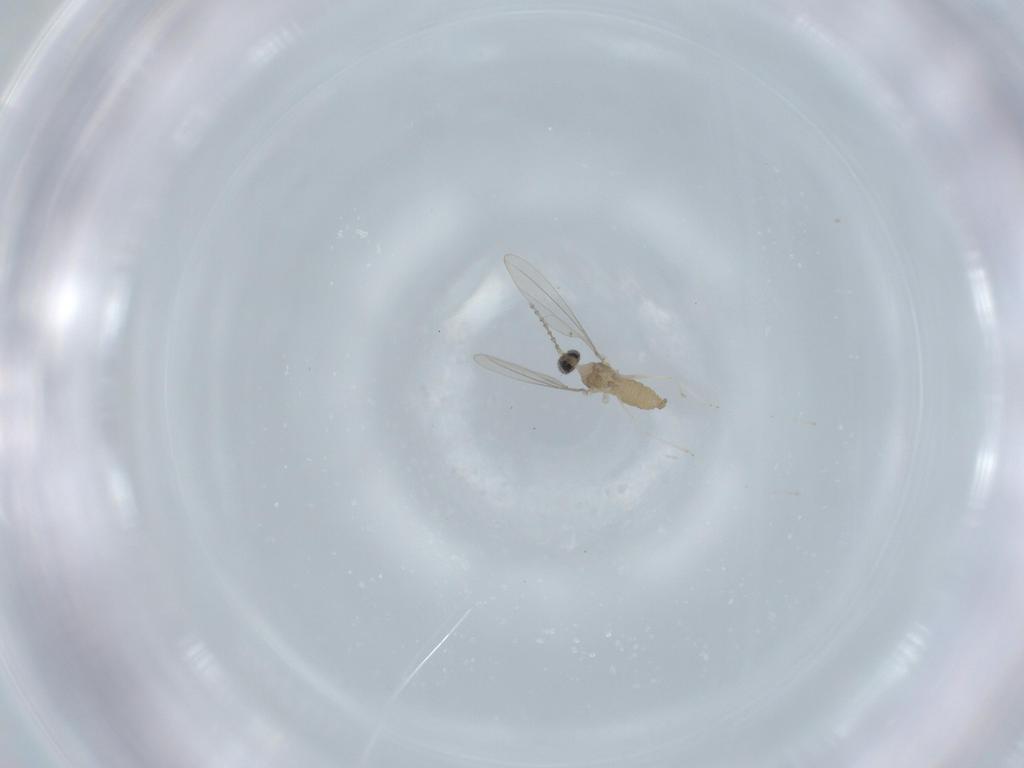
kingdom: Animalia
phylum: Arthropoda
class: Insecta
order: Diptera
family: Cecidomyiidae
